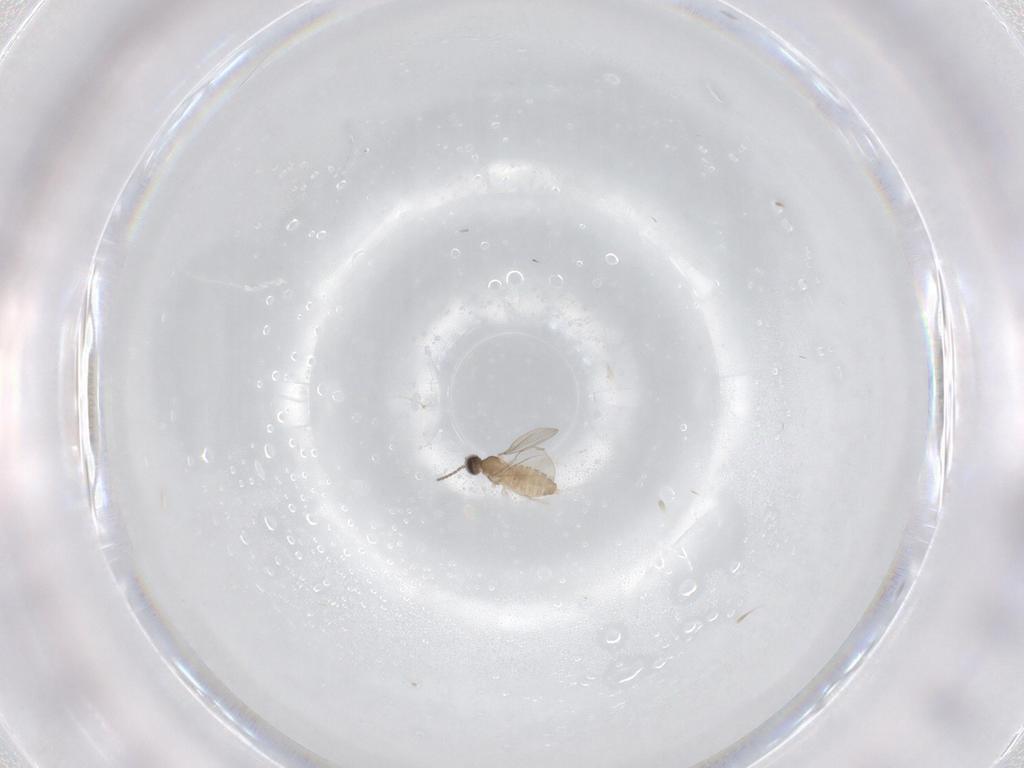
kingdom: Animalia
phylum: Arthropoda
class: Insecta
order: Diptera
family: Cecidomyiidae
